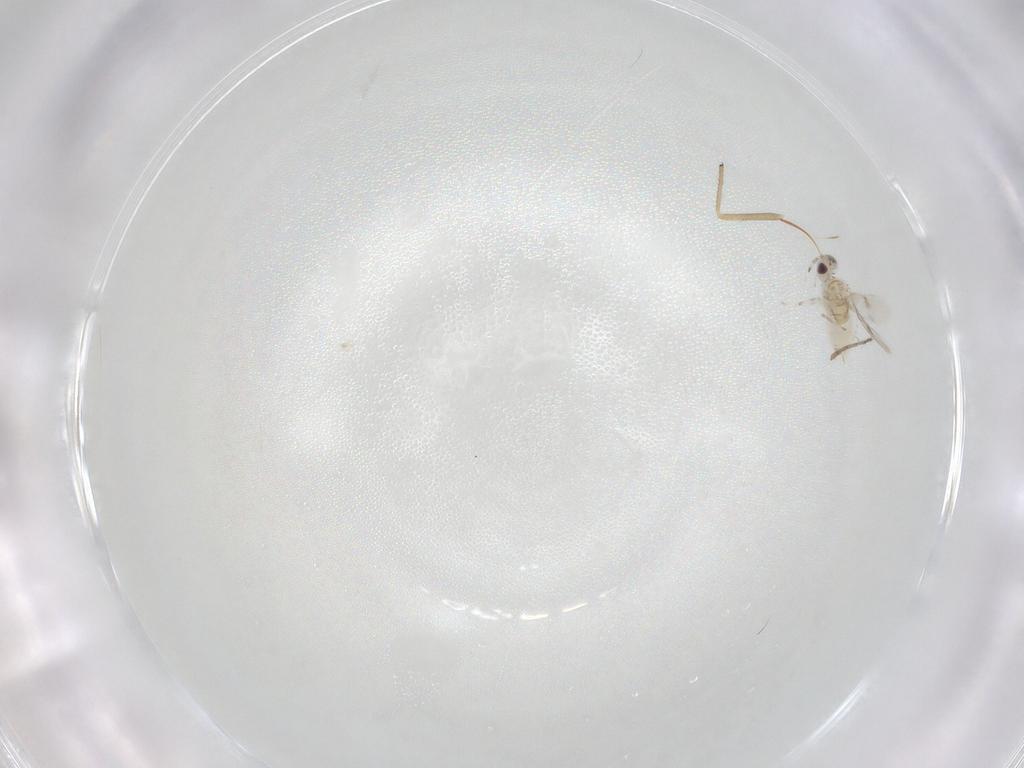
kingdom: Animalia
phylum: Arthropoda
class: Insecta
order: Hymenoptera
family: Aphelinidae
